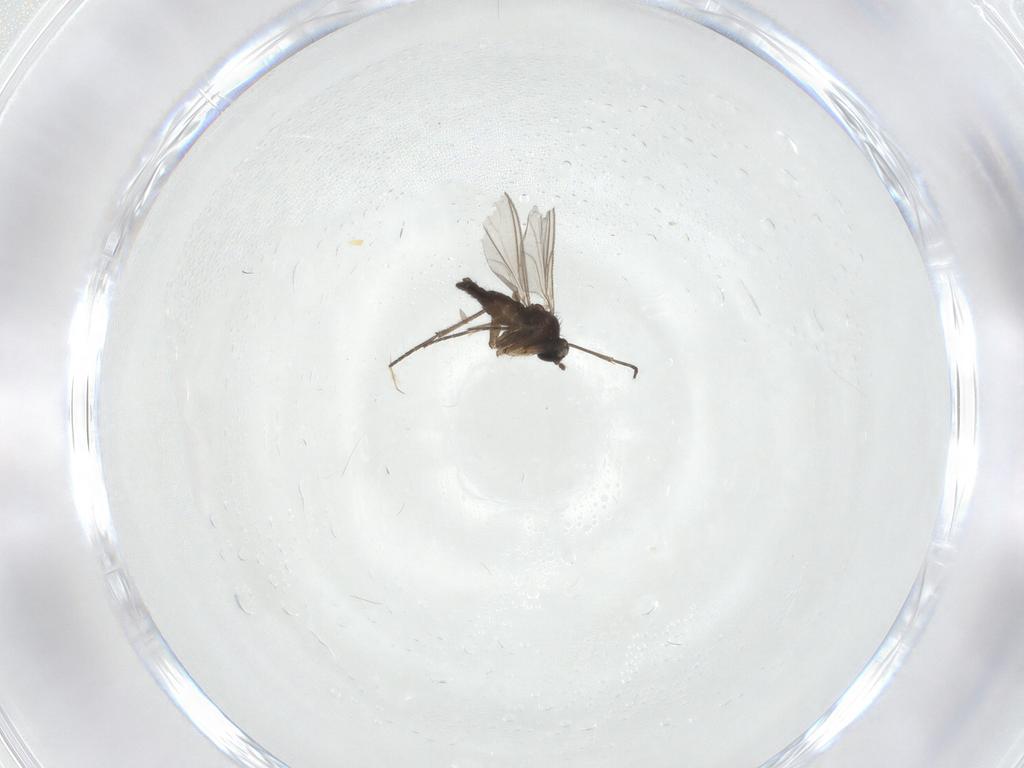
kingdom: Animalia
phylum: Arthropoda
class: Insecta
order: Diptera
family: Sciaridae
